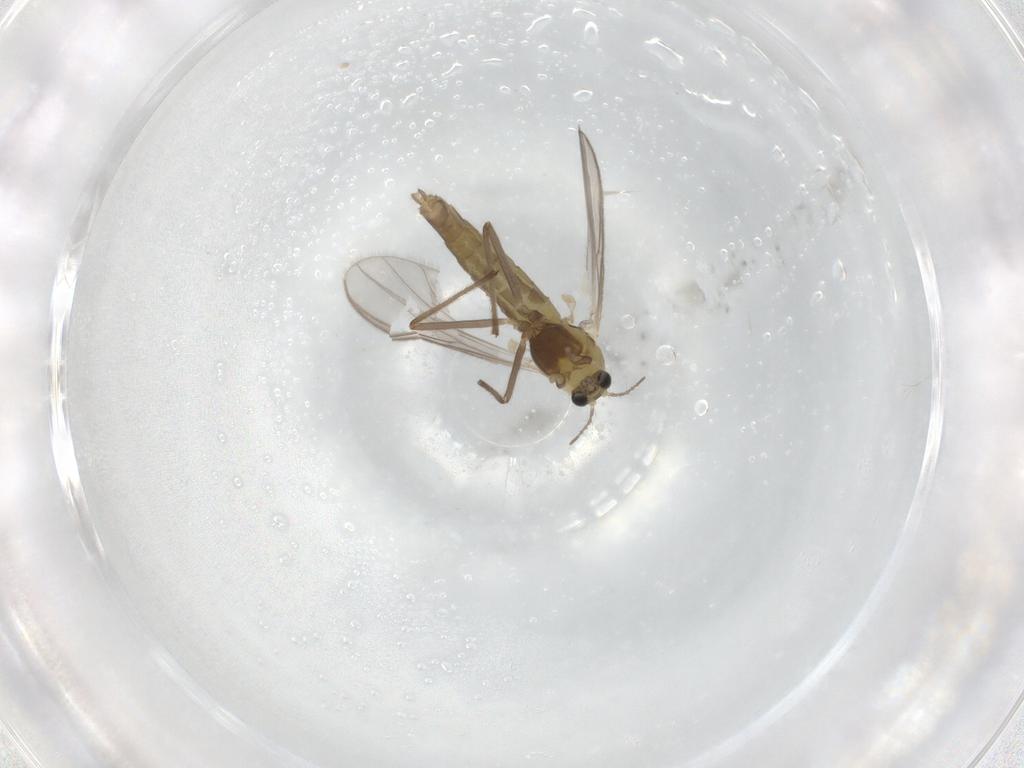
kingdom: Animalia
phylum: Arthropoda
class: Insecta
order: Diptera
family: Chironomidae
